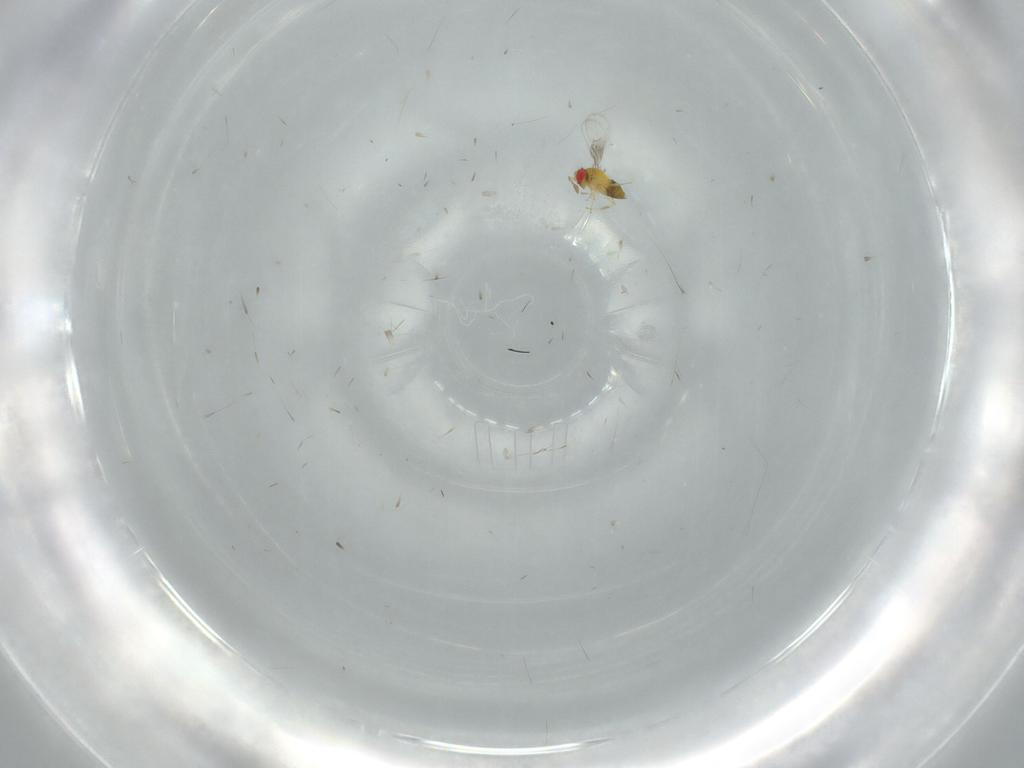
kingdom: Animalia
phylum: Arthropoda
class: Insecta
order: Hymenoptera
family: Trichogrammatidae
